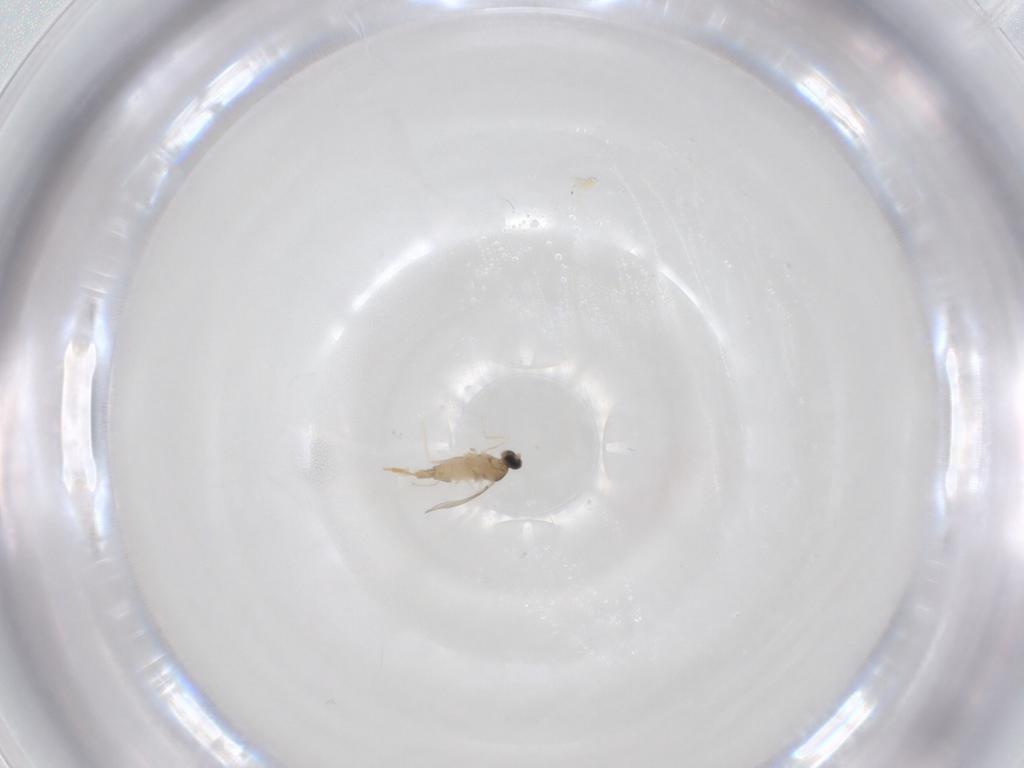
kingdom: Animalia
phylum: Arthropoda
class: Insecta
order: Diptera
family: Cecidomyiidae
